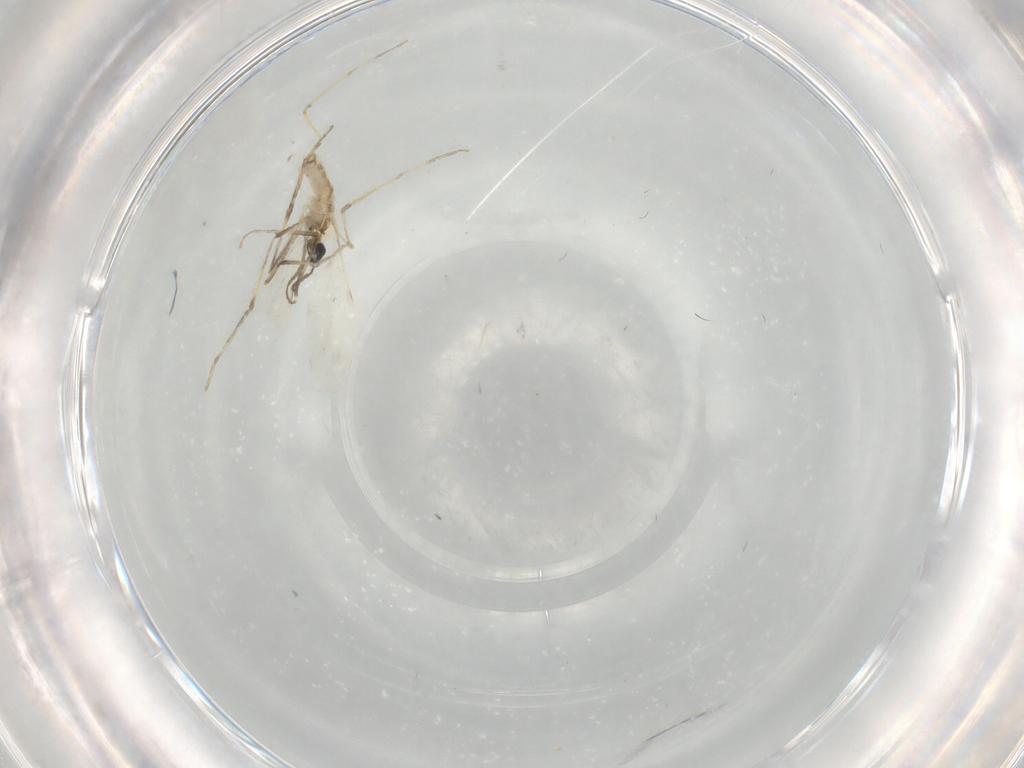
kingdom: Animalia
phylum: Arthropoda
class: Insecta
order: Diptera
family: Cecidomyiidae
